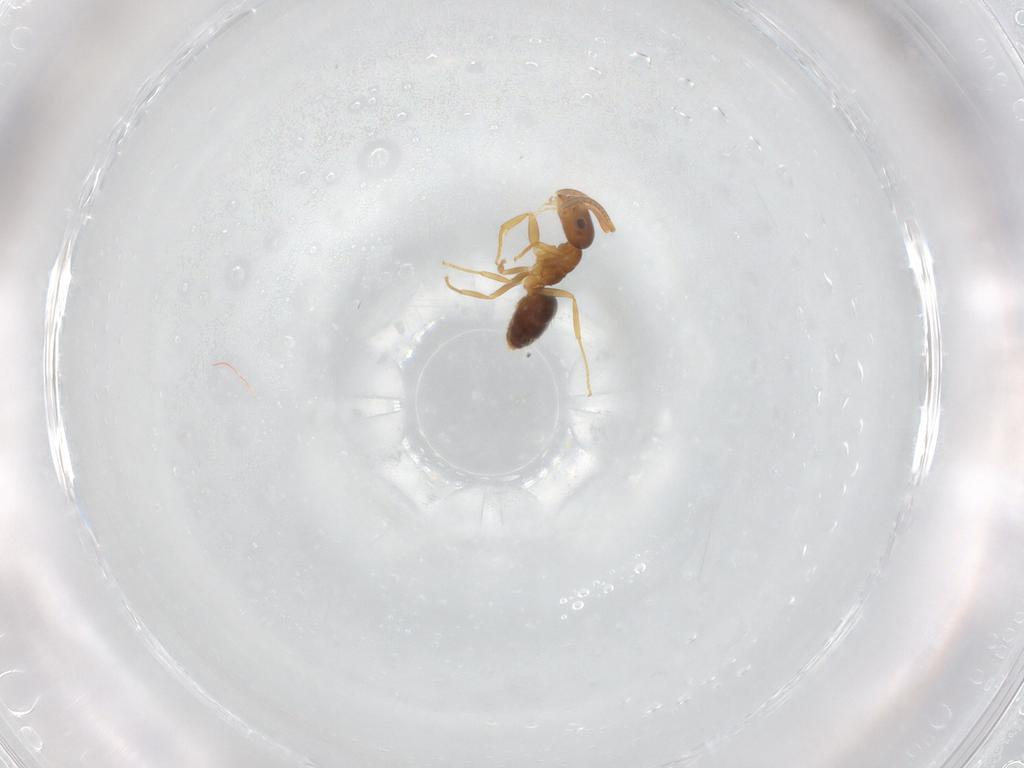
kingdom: Animalia
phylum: Arthropoda
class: Insecta
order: Hymenoptera
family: Formicidae
